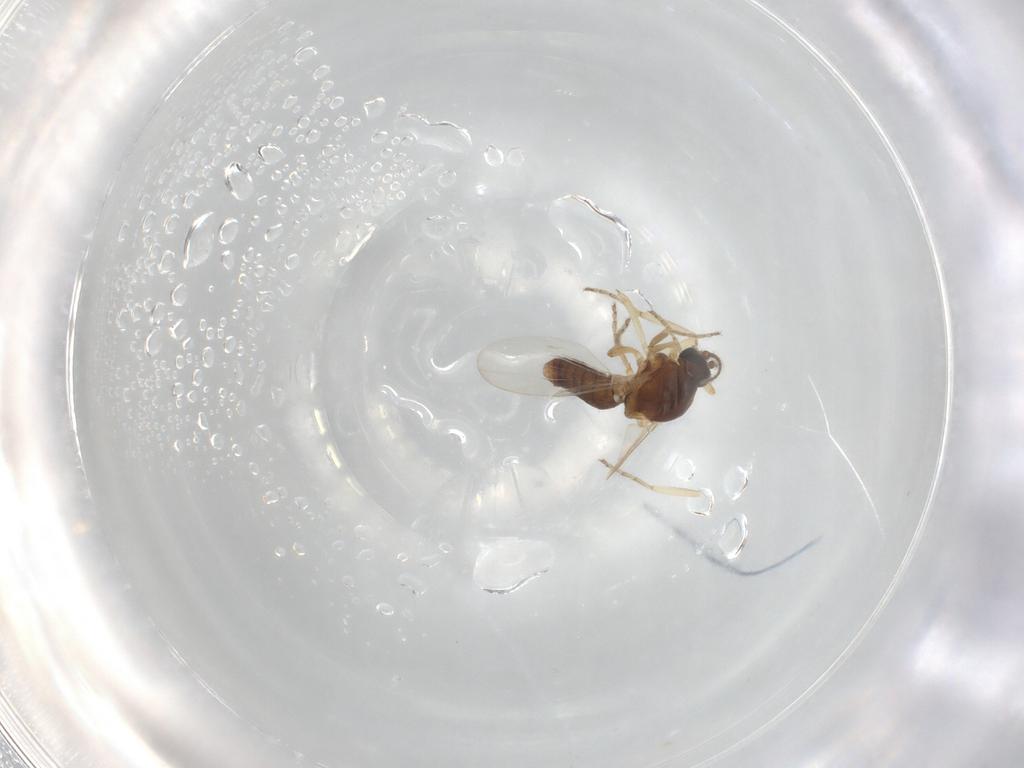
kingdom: Animalia
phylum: Arthropoda
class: Insecta
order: Diptera
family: Ceratopogonidae
